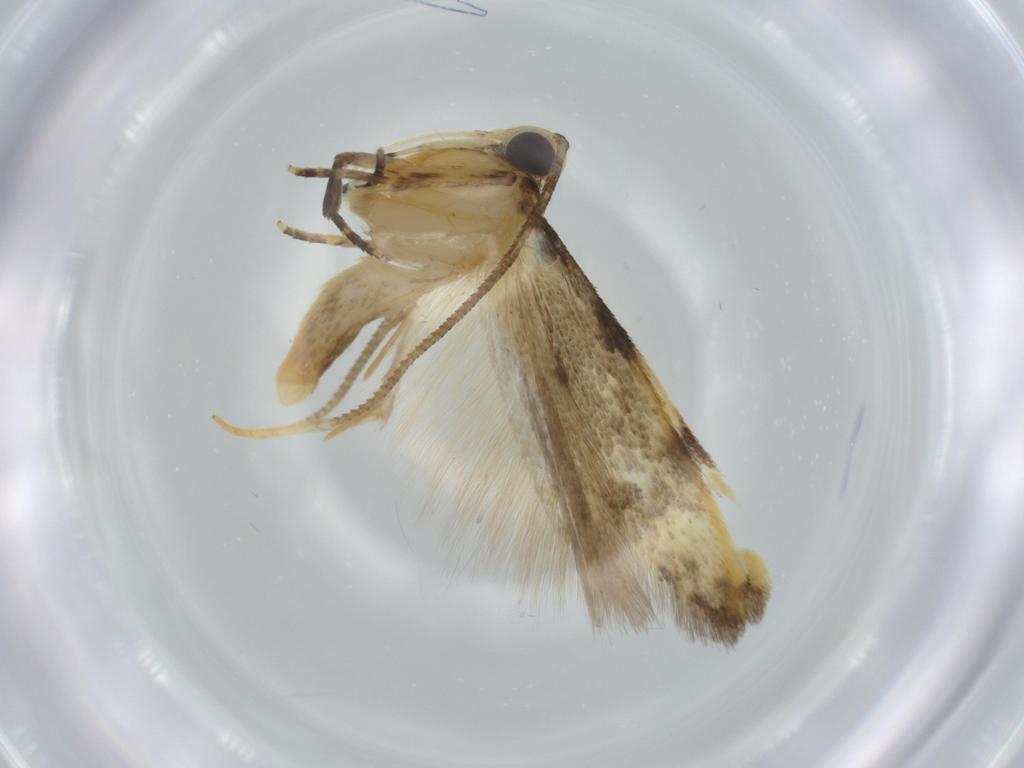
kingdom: Animalia
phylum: Arthropoda
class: Insecta
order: Lepidoptera
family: Autostichidae
